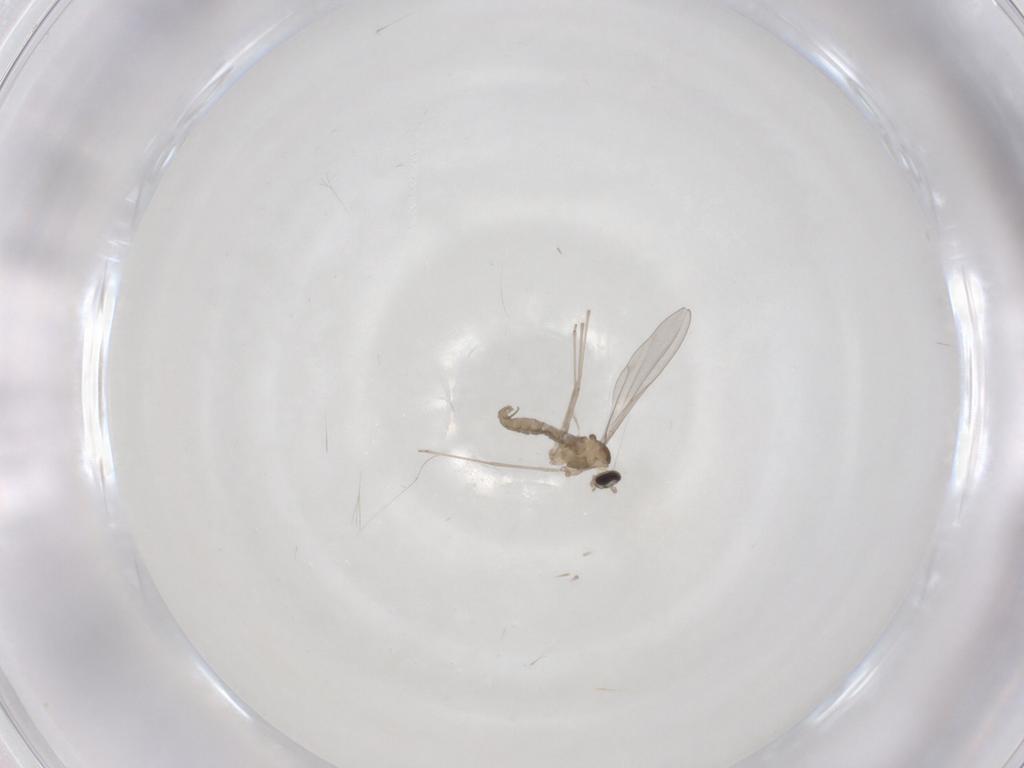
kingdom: Animalia
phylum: Arthropoda
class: Insecta
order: Diptera
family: Cecidomyiidae
